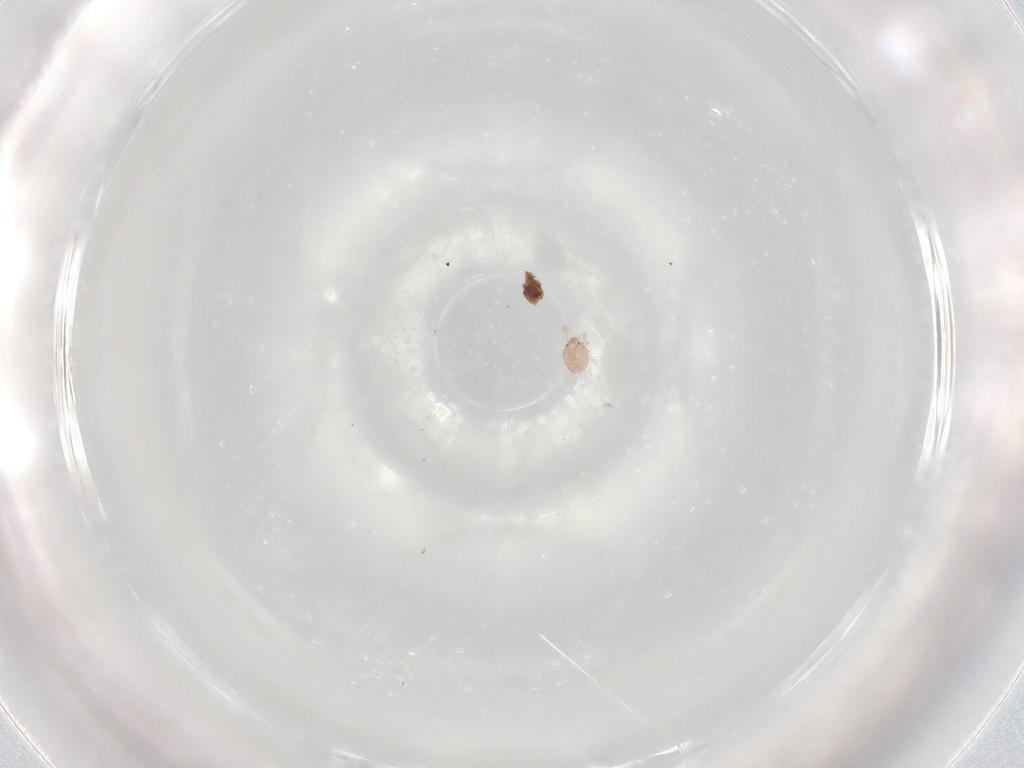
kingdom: Animalia
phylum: Arthropoda
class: Arachnida
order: Sarcoptiformes
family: Alycidae
